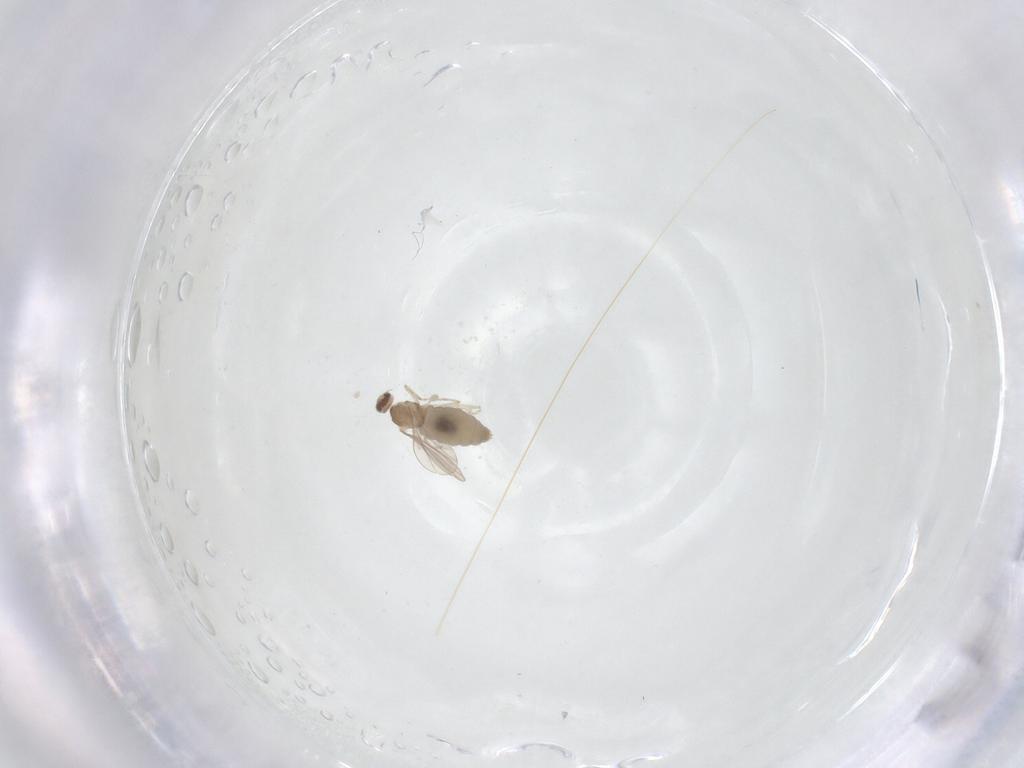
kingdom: Animalia
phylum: Arthropoda
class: Insecta
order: Diptera
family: Cecidomyiidae
